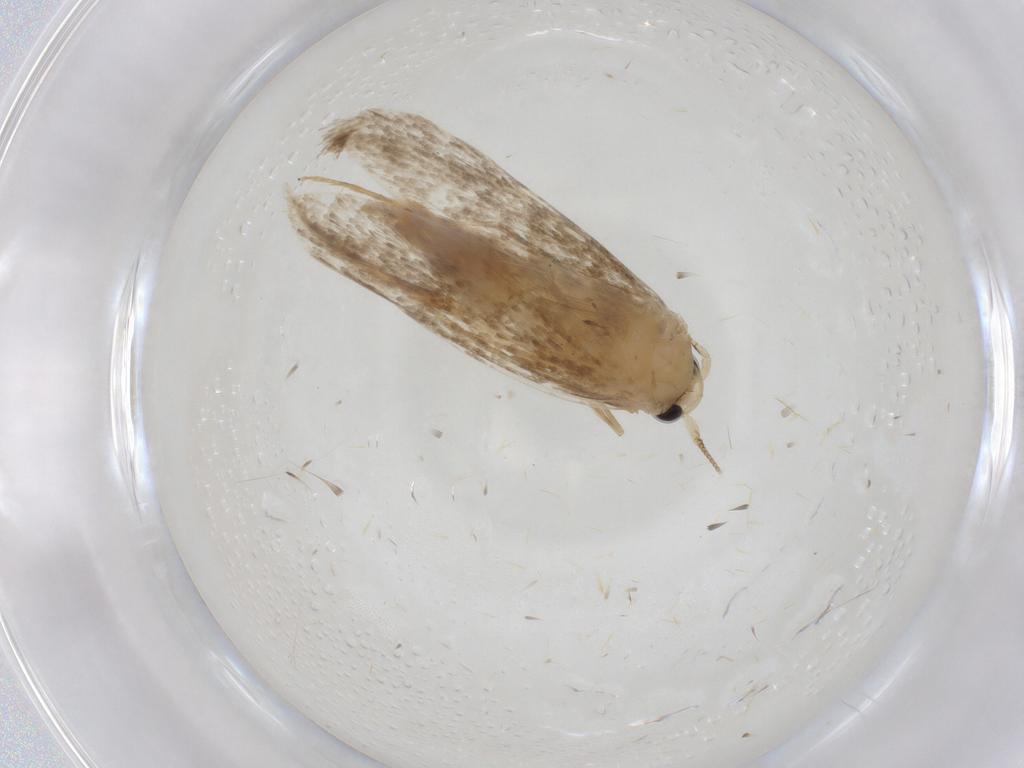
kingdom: Animalia
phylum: Arthropoda
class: Insecta
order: Lepidoptera
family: Tineidae
